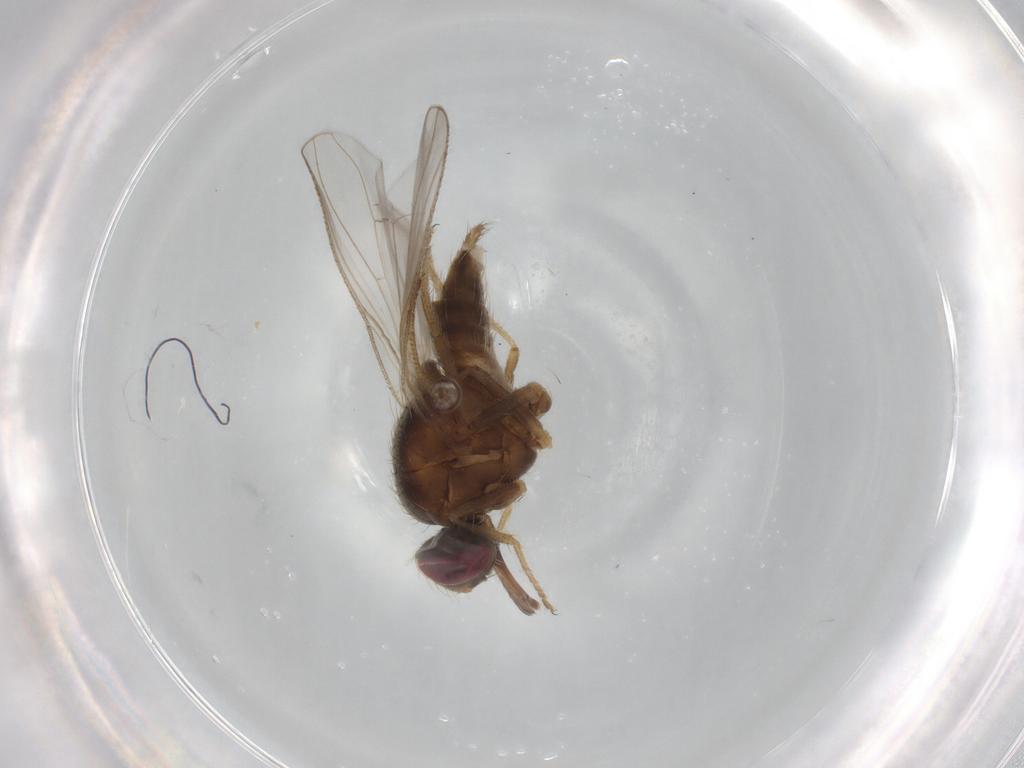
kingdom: Animalia
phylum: Arthropoda
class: Insecta
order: Diptera
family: Muscidae
